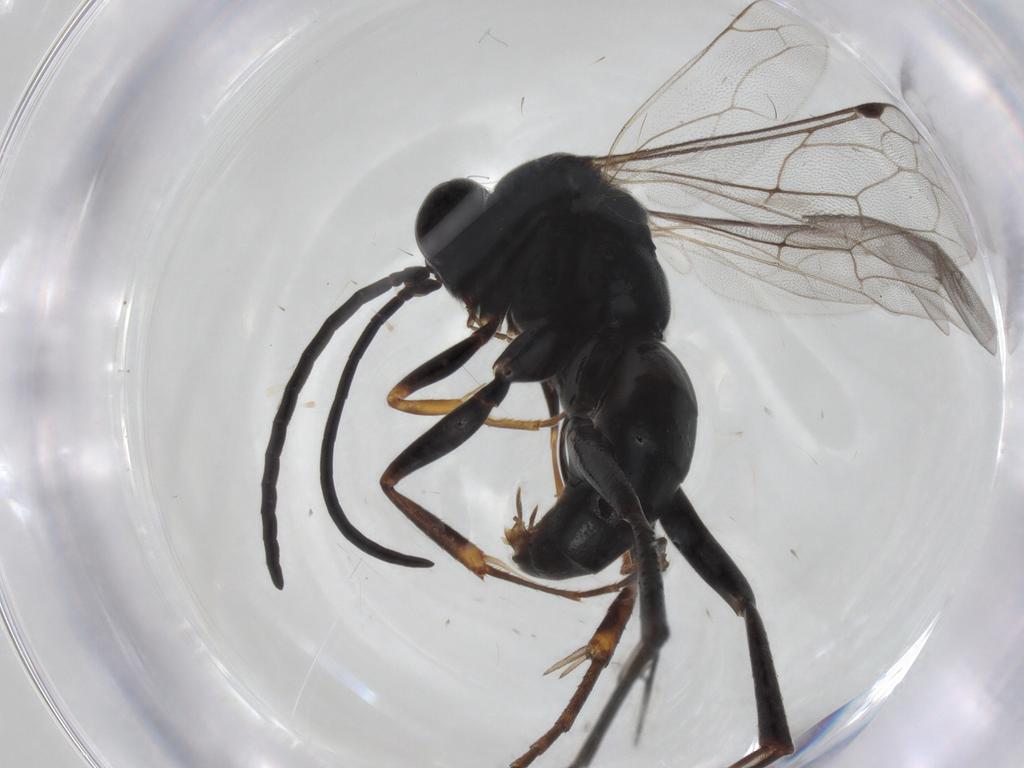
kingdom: Animalia
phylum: Arthropoda
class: Insecta
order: Hymenoptera
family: Pompilidae
